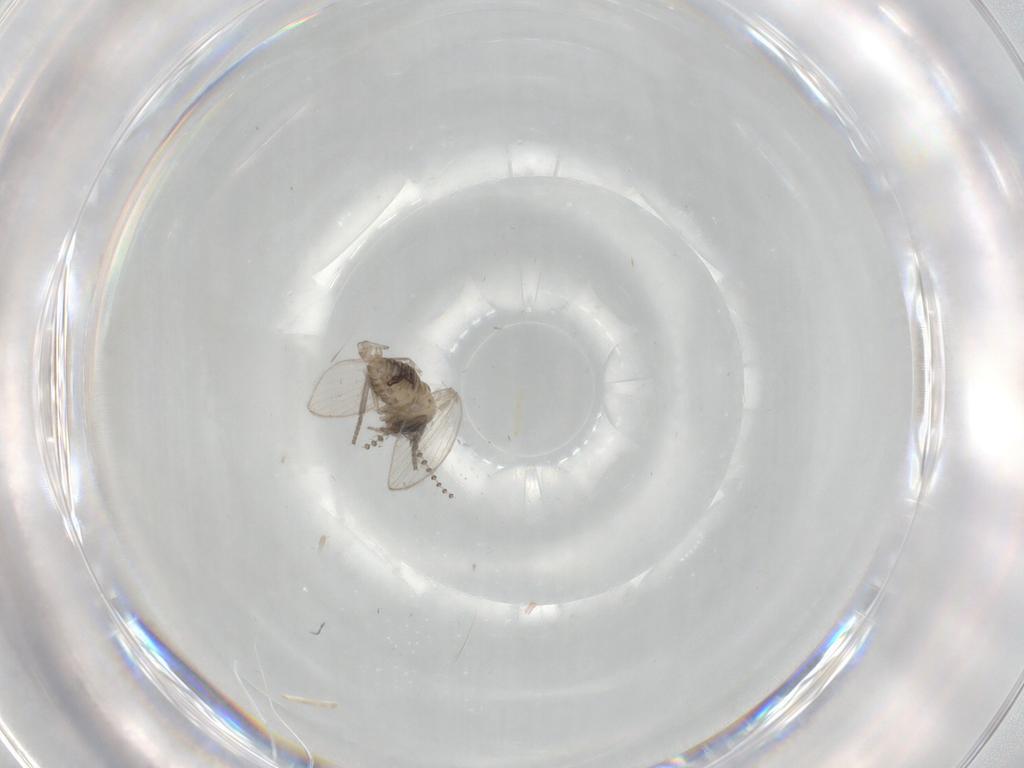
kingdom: Animalia
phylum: Arthropoda
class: Insecta
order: Diptera
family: Psychodidae
